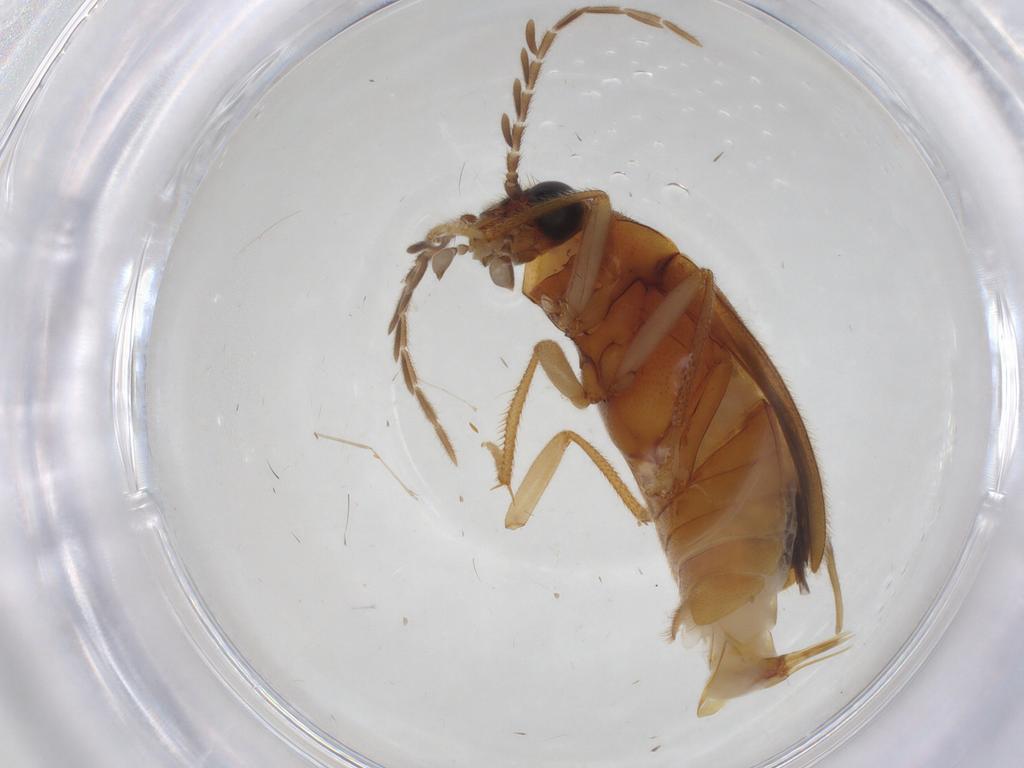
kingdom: Animalia
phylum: Arthropoda
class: Insecta
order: Coleoptera
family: Ptilodactylidae
